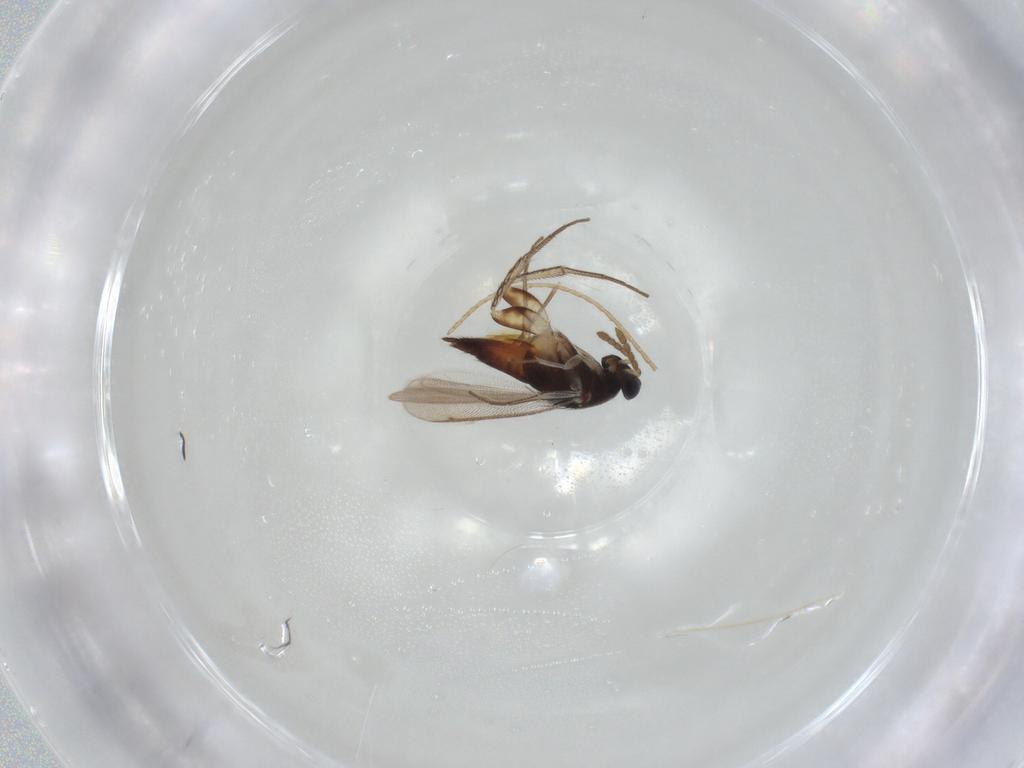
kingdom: Animalia
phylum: Arthropoda
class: Insecta
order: Hymenoptera
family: Eulophidae
